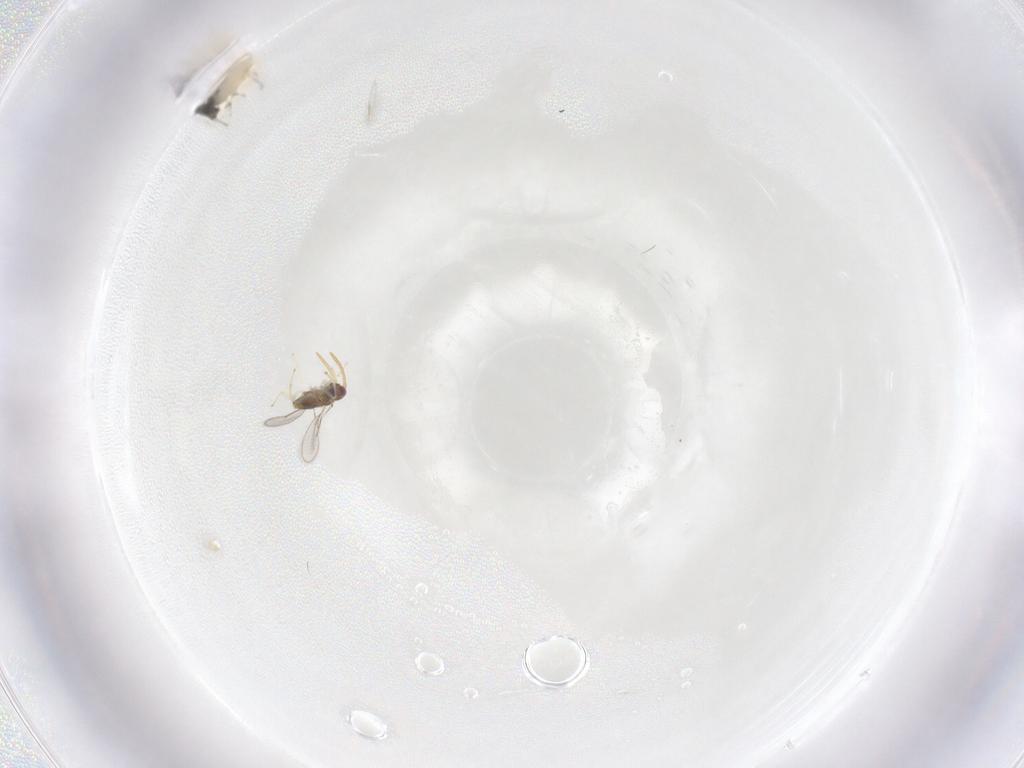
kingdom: Animalia
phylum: Arthropoda
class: Insecta
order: Hymenoptera
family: Aphelinidae
